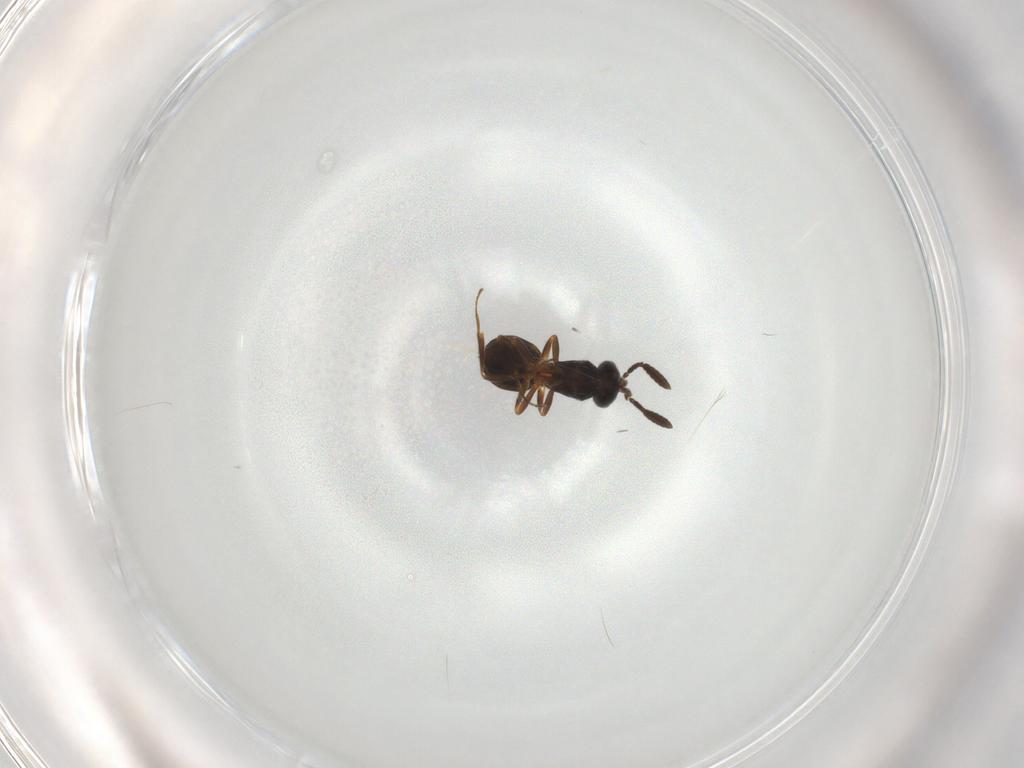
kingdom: Animalia
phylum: Arthropoda
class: Insecta
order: Hymenoptera
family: Scelionidae
